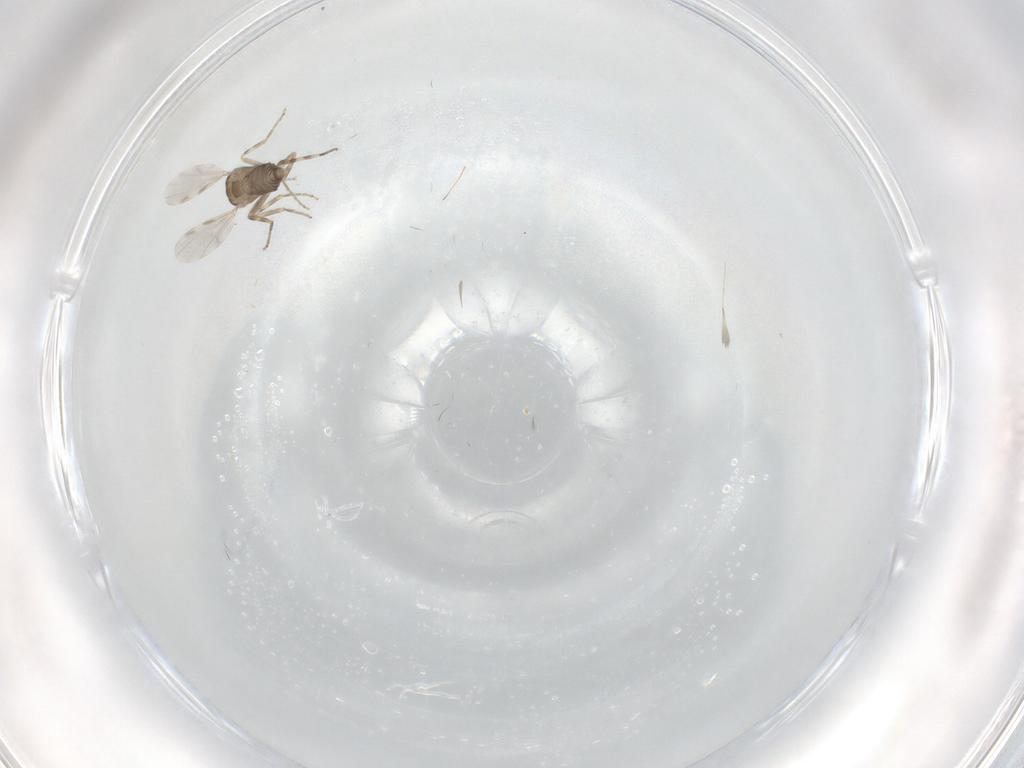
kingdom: Animalia
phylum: Arthropoda
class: Insecta
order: Diptera
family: Ceratopogonidae
